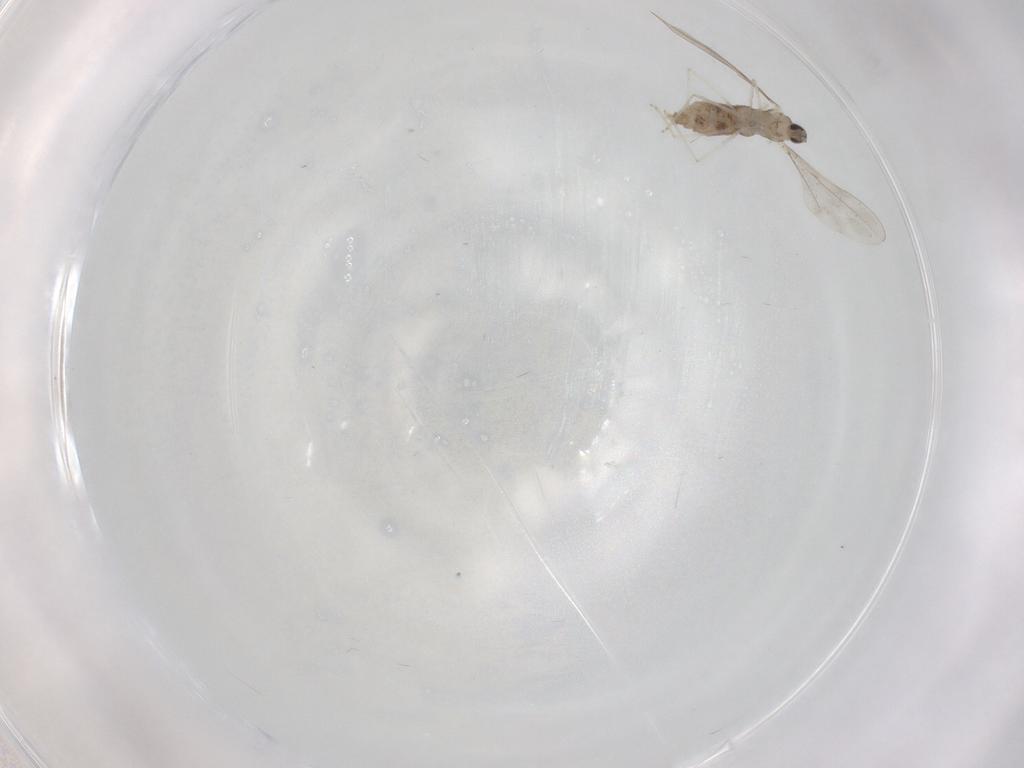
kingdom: Animalia
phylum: Arthropoda
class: Insecta
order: Diptera
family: Cecidomyiidae
